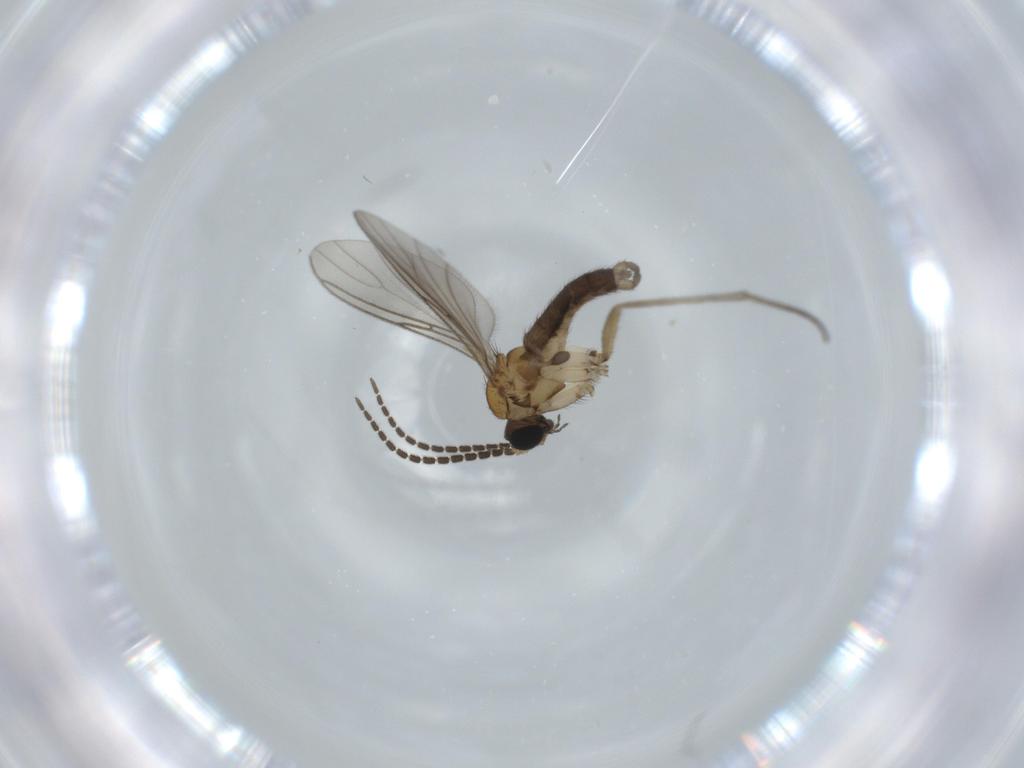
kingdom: Animalia
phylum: Arthropoda
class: Insecta
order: Diptera
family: Sciaridae
